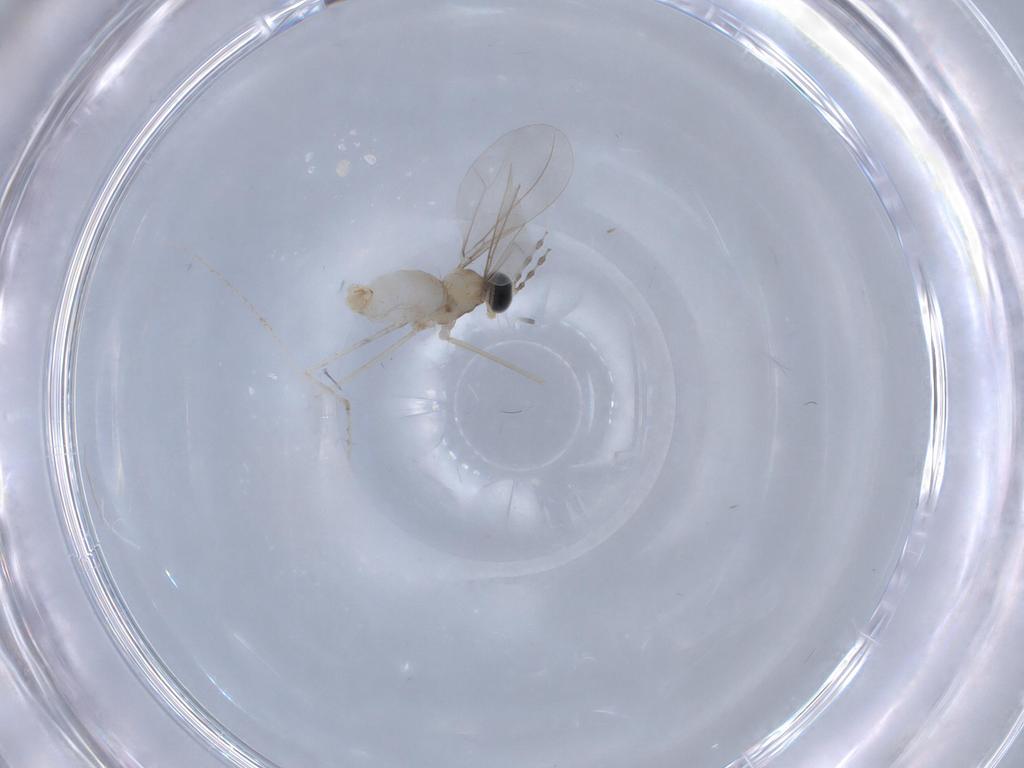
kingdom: Animalia
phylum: Arthropoda
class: Insecta
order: Diptera
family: Cecidomyiidae
